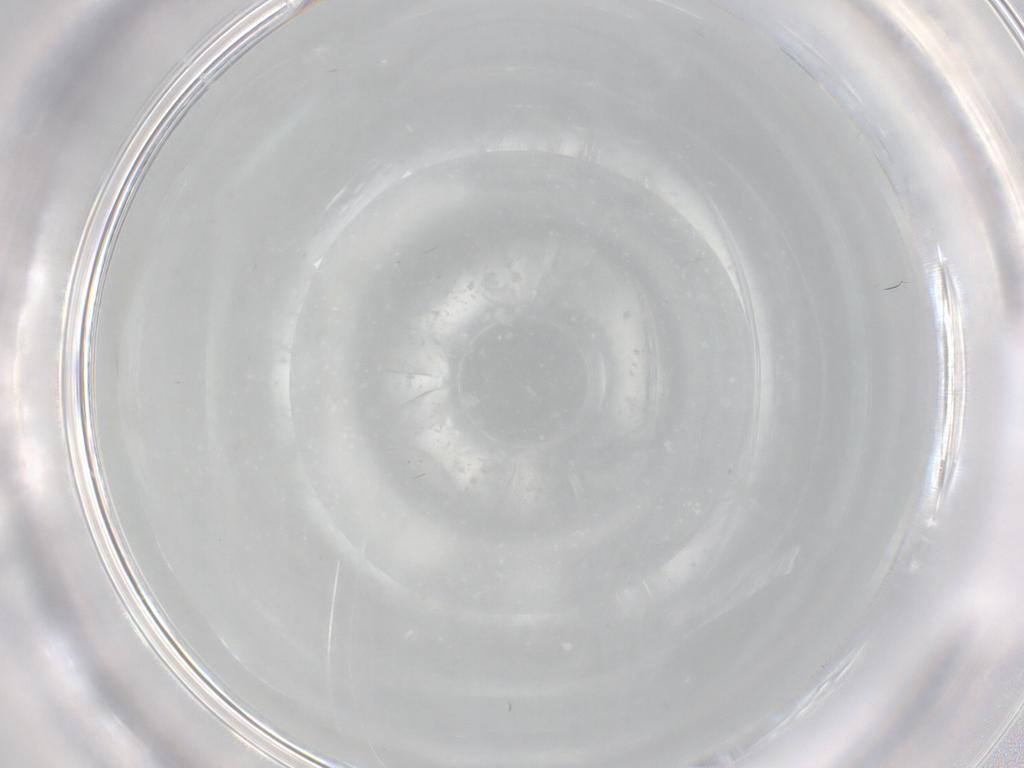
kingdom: Animalia
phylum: Arthropoda
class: Insecta
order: Diptera
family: Cecidomyiidae
